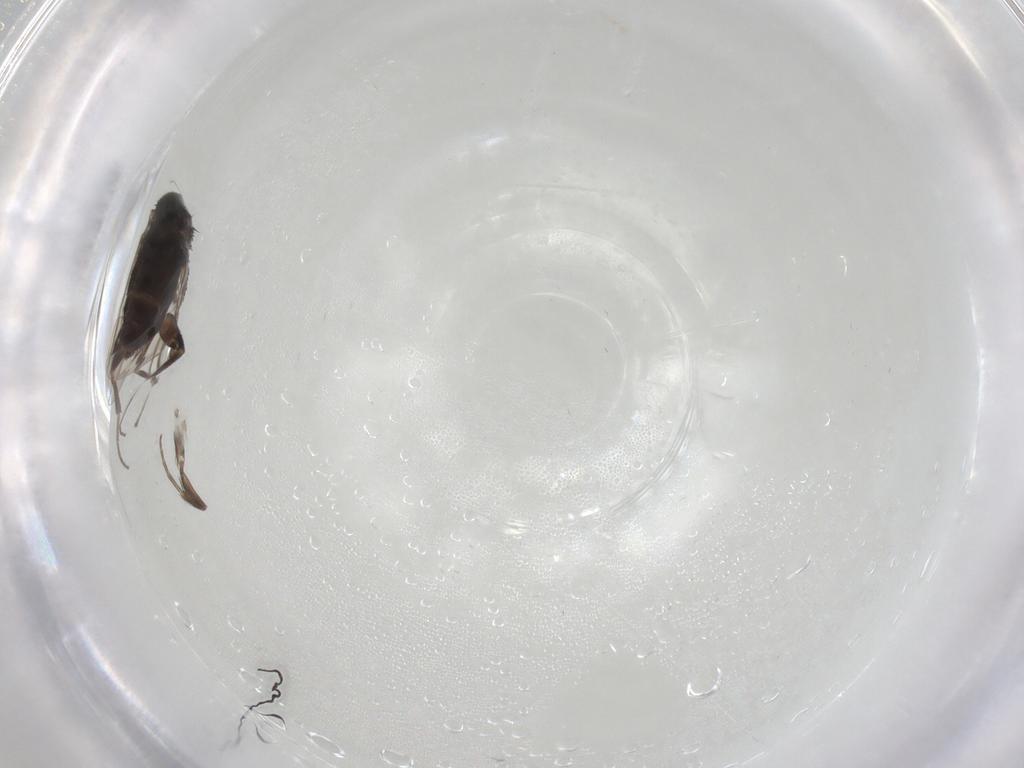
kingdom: Animalia
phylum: Arthropoda
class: Insecta
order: Diptera
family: Phoridae
